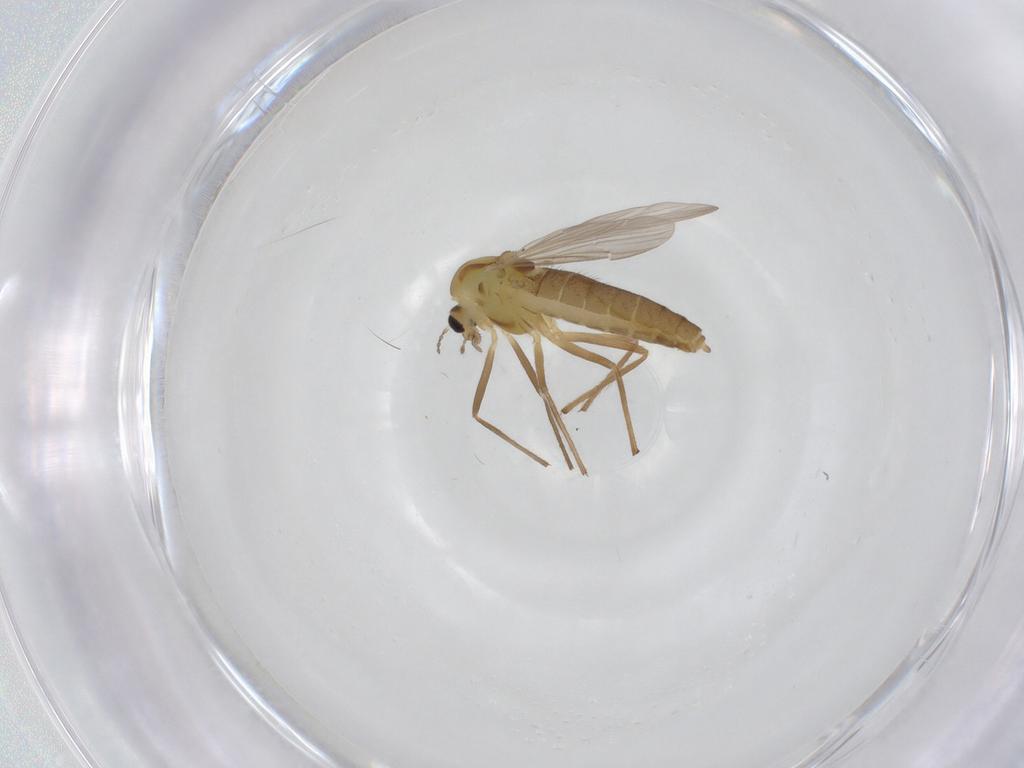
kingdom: Animalia
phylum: Arthropoda
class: Insecta
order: Diptera
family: Chironomidae
